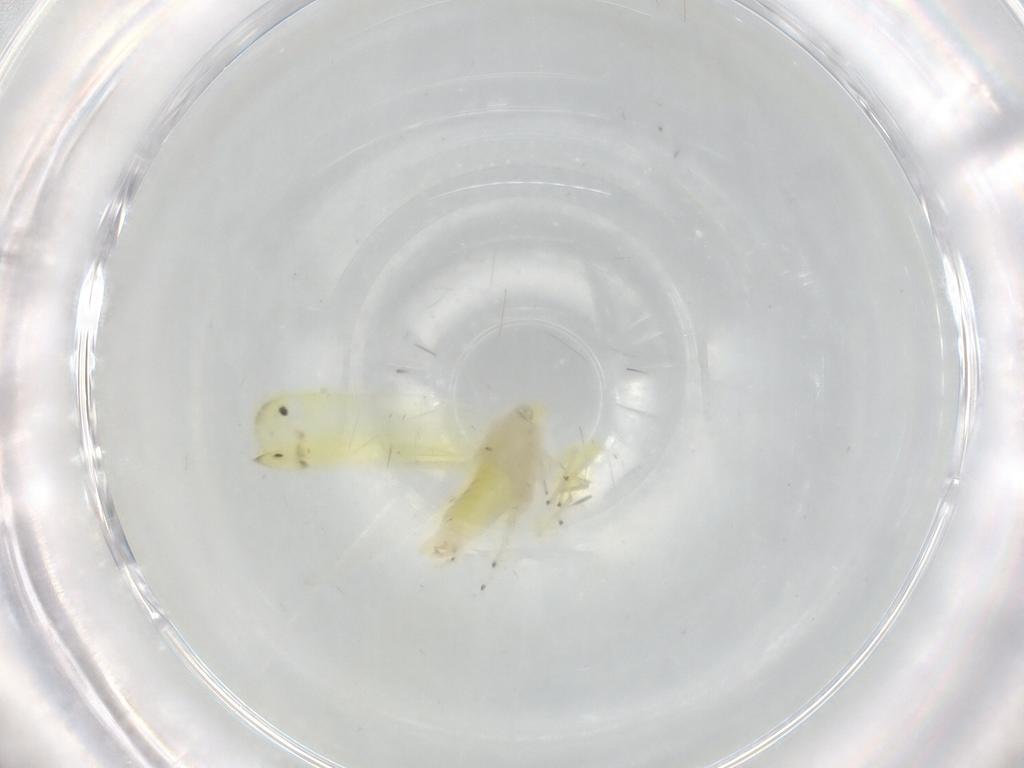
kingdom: Animalia
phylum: Arthropoda
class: Insecta
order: Hemiptera
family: Cicadellidae
